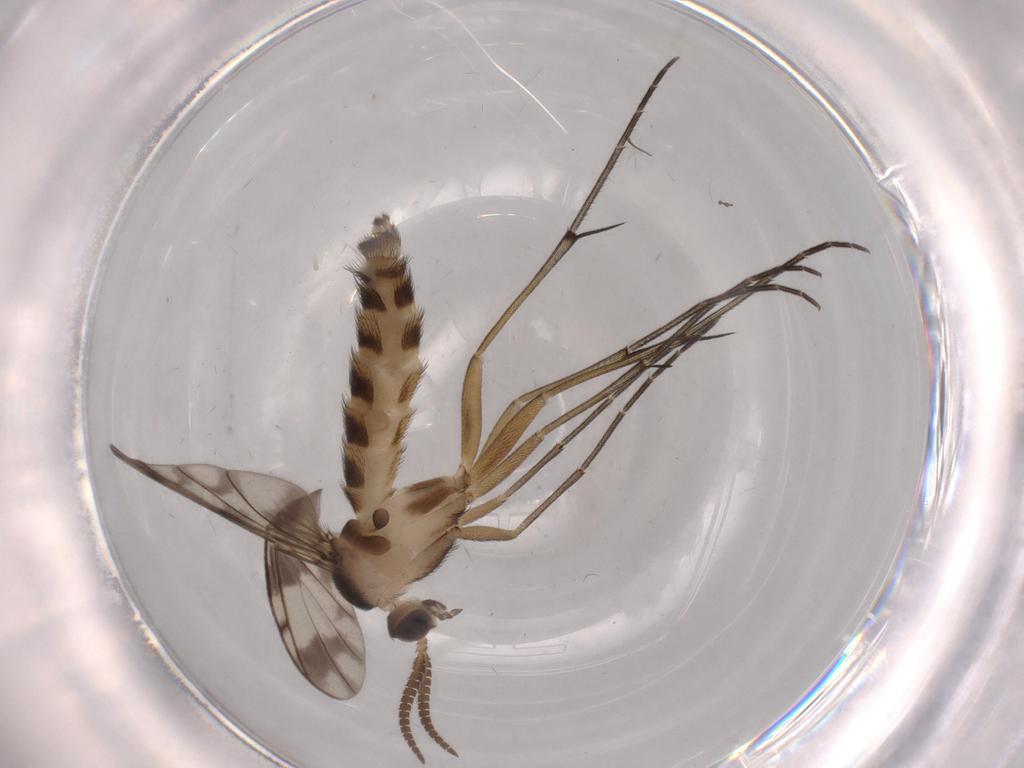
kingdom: Animalia
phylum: Arthropoda
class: Insecta
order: Diptera
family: Keroplatidae
